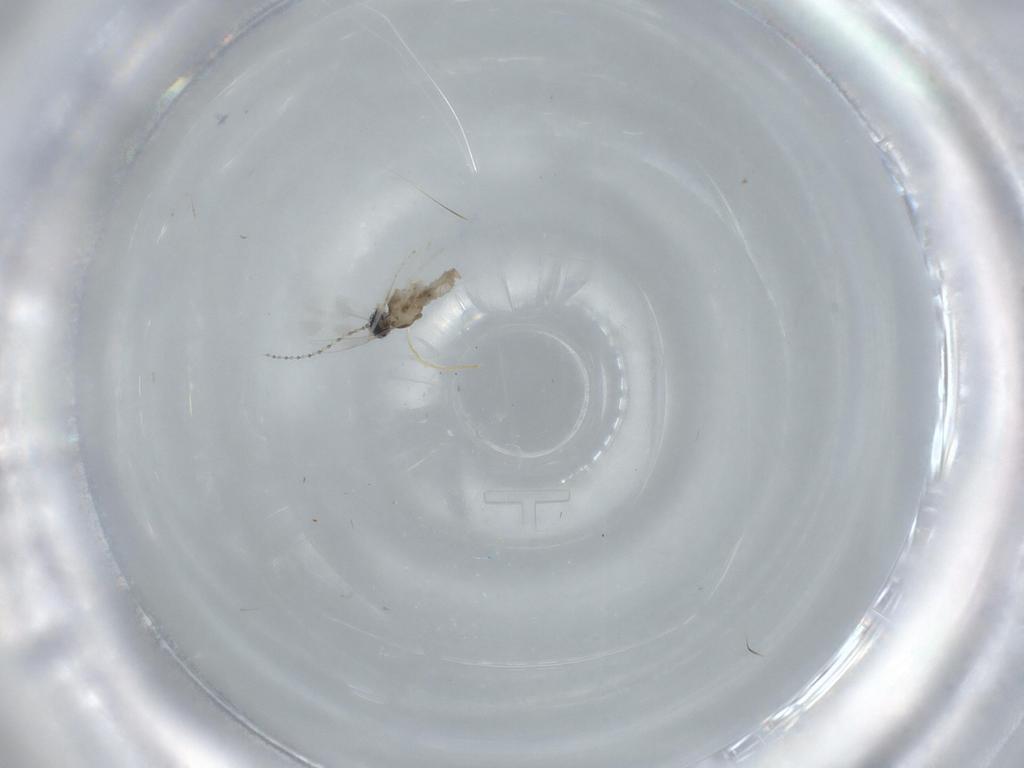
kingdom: Animalia
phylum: Arthropoda
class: Insecta
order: Diptera
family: Cecidomyiidae
